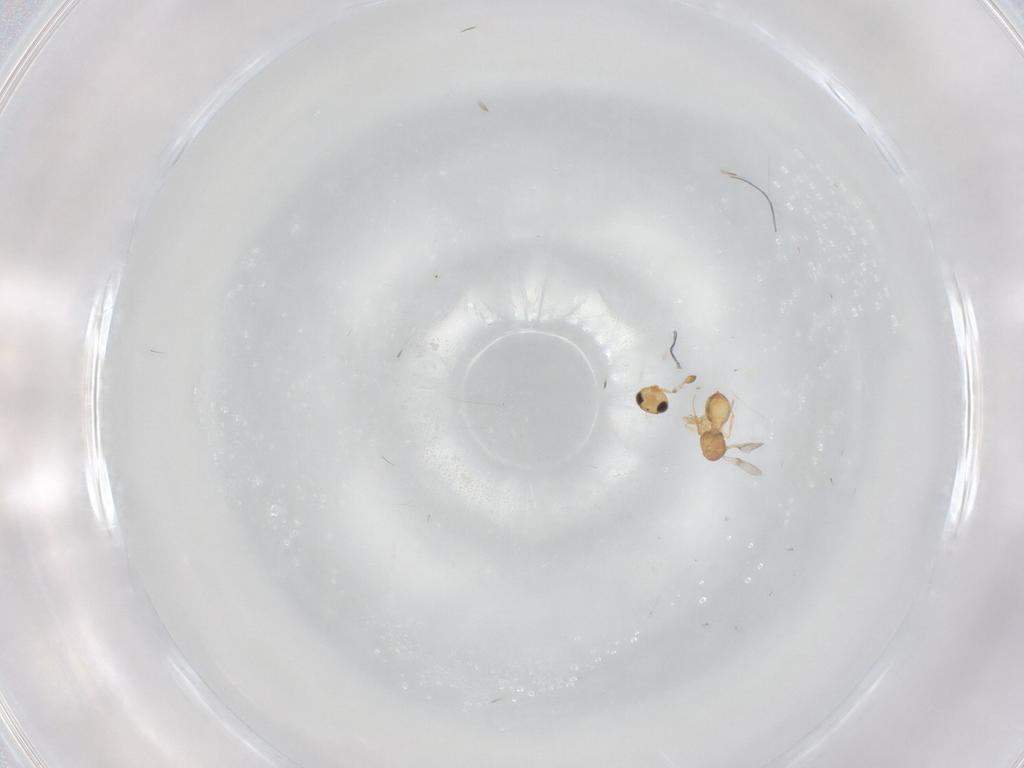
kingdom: Animalia
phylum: Arthropoda
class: Insecta
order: Hymenoptera
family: Scelionidae
